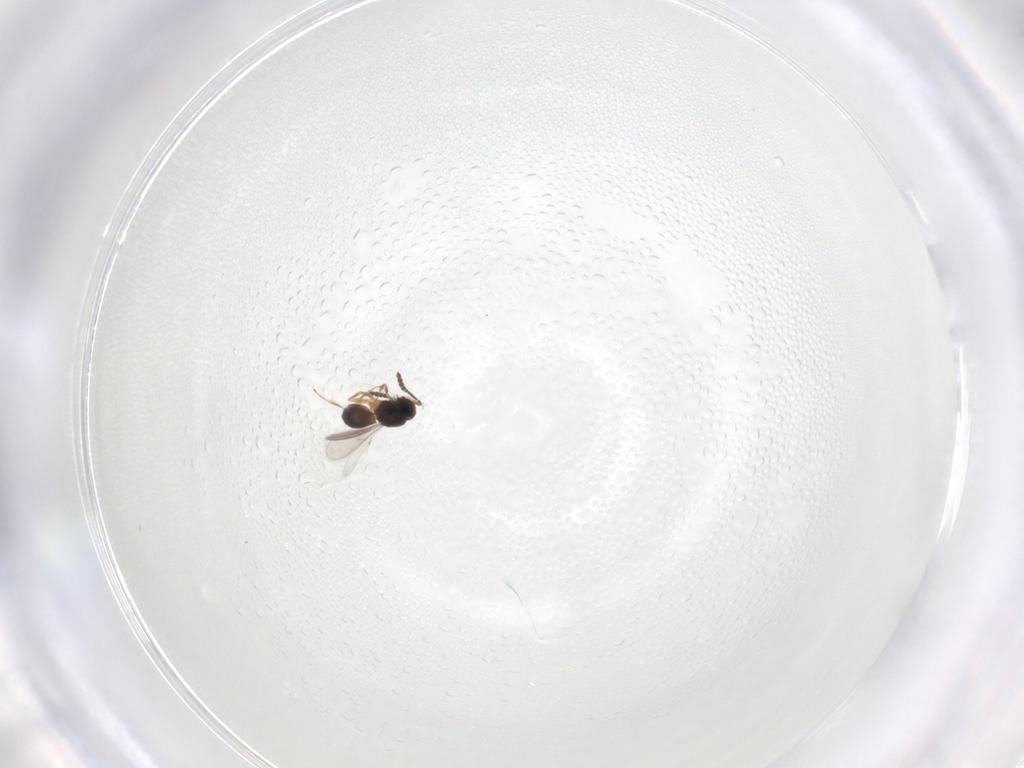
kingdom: Animalia
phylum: Arthropoda
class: Insecta
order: Hymenoptera
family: Scelionidae
